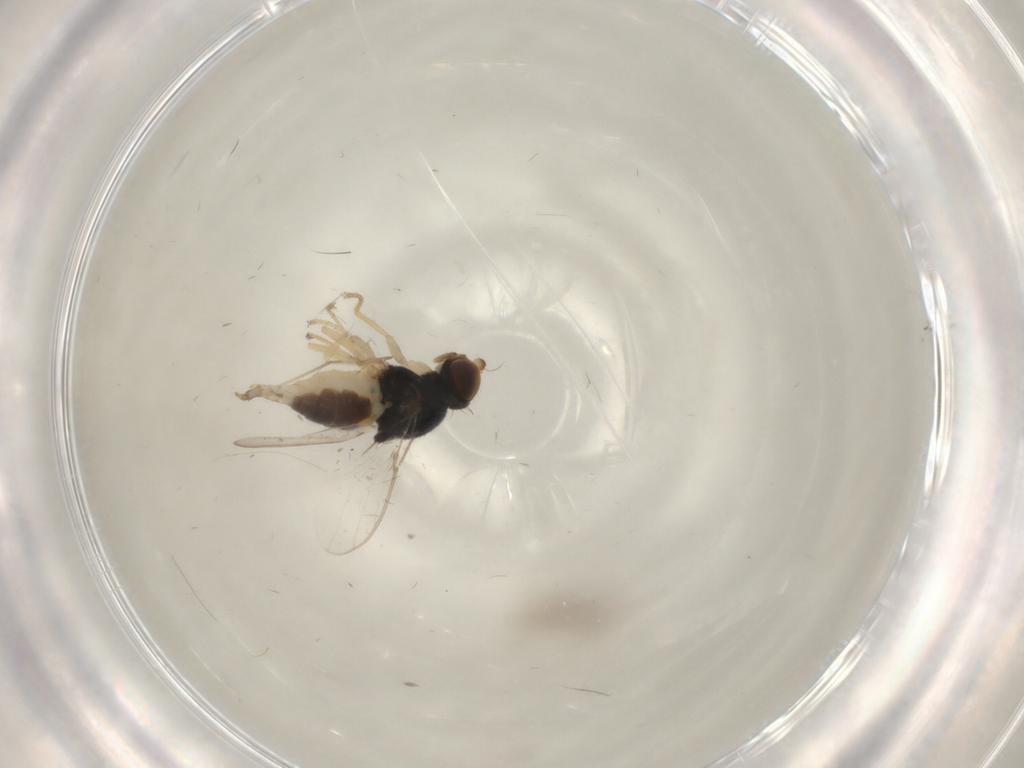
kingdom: Animalia
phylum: Arthropoda
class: Insecta
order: Diptera
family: Chloropidae
